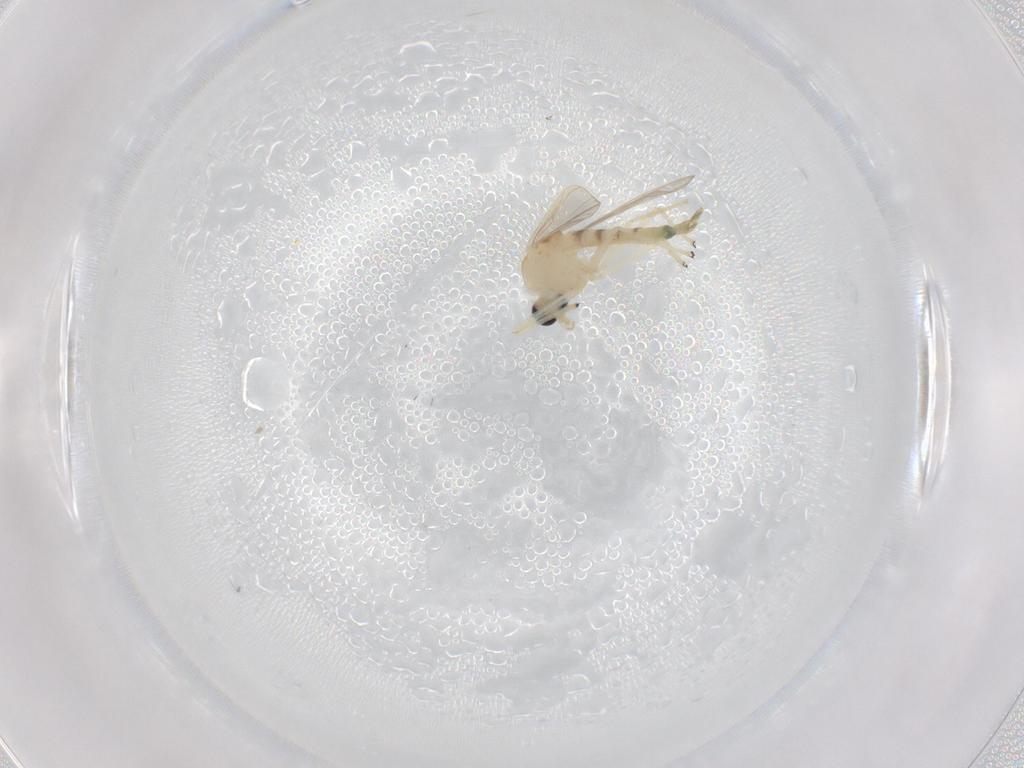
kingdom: Animalia
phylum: Arthropoda
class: Insecta
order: Diptera
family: Chironomidae
